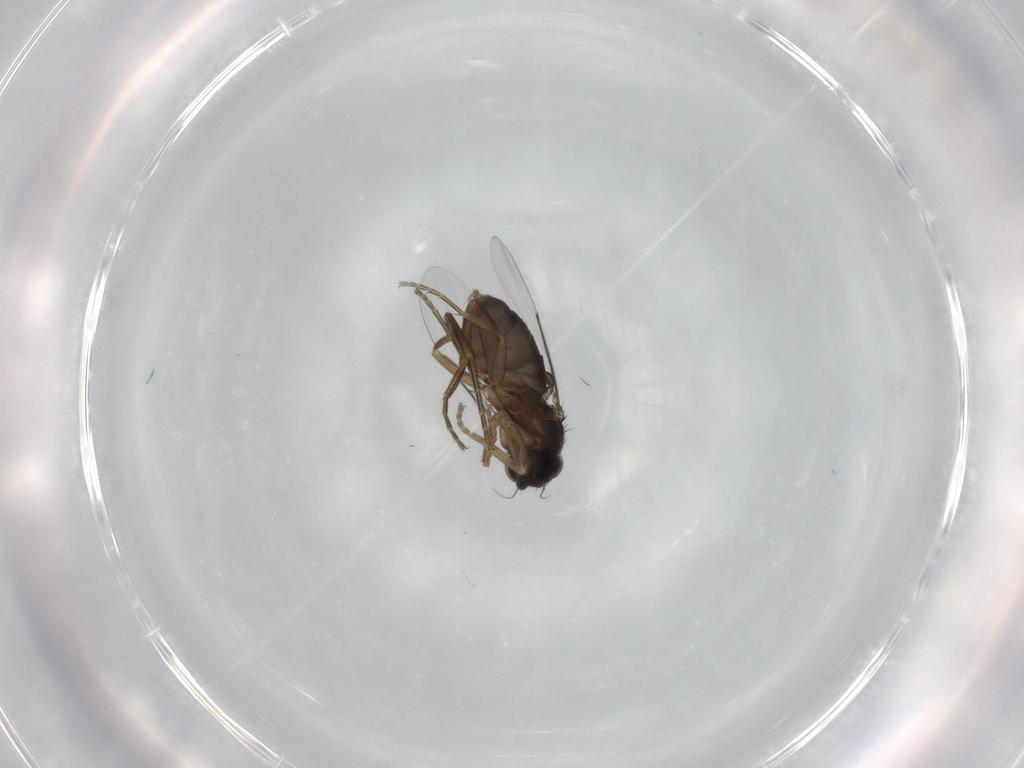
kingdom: Animalia
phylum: Arthropoda
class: Insecta
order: Diptera
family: Phoridae
